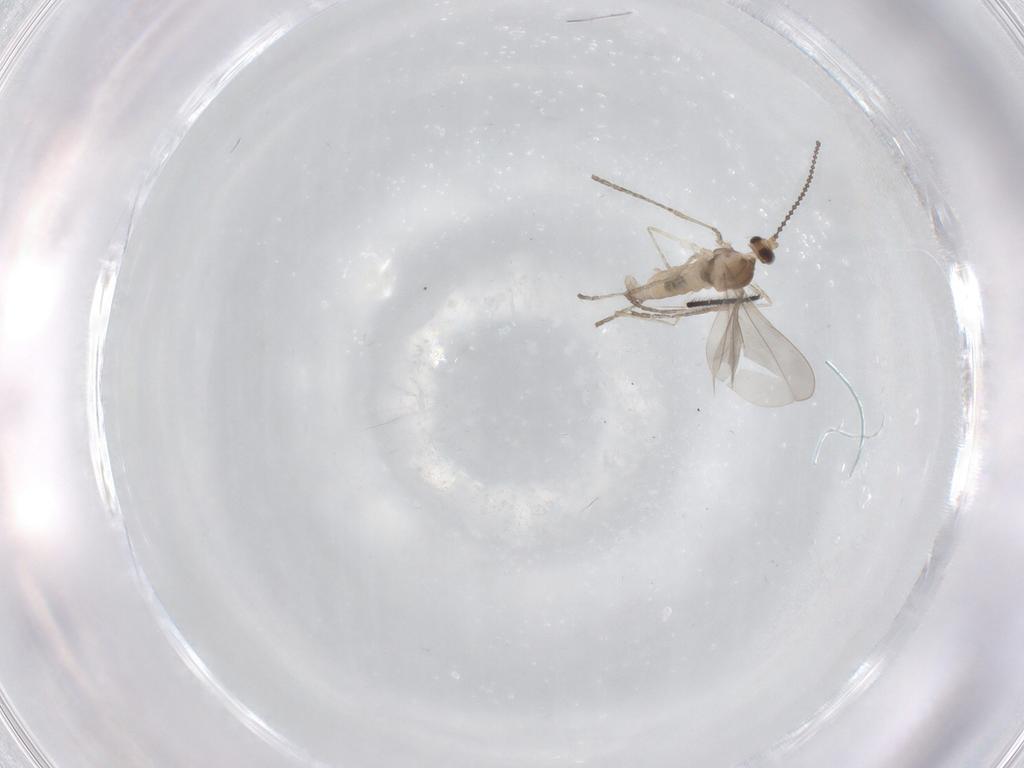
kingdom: Animalia
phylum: Arthropoda
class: Insecta
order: Diptera
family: Cecidomyiidae
